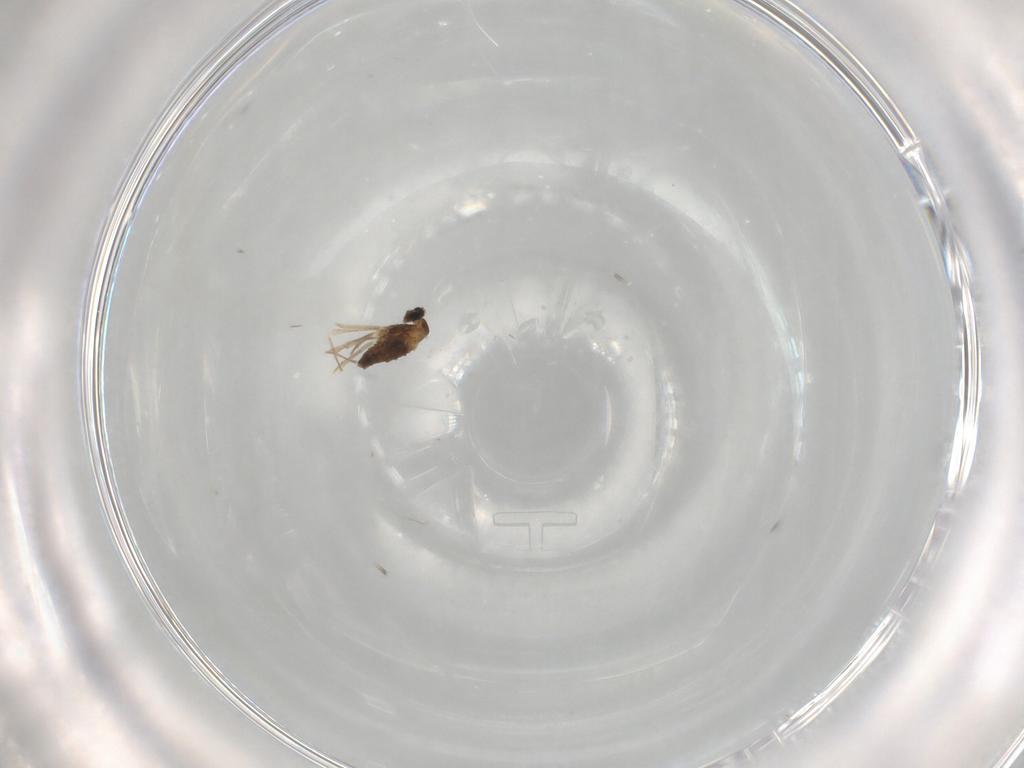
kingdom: Animalia
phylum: Arthropoda
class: Insecta
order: Diptera
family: Cecidomyiidae
